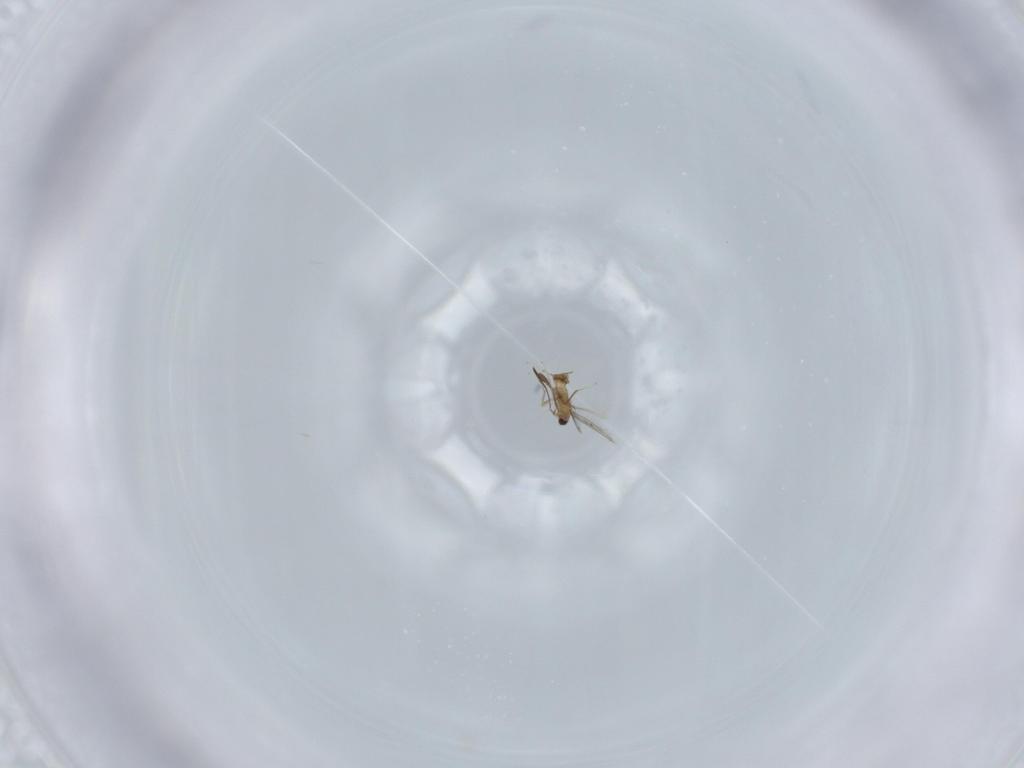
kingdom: Animalia
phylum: Arthropoda
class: Insecta
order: Hymenoptera
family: Mymaridae
